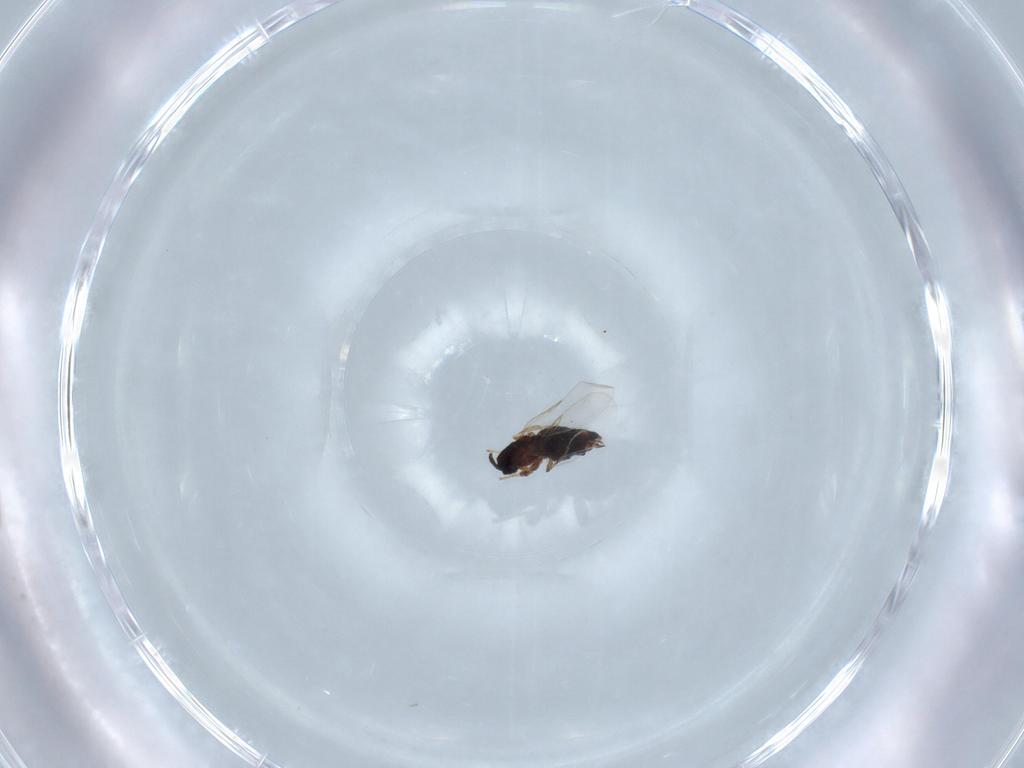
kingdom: Animalia
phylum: Arthropoda
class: Insecta
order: Diptera
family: Scatopsidae
